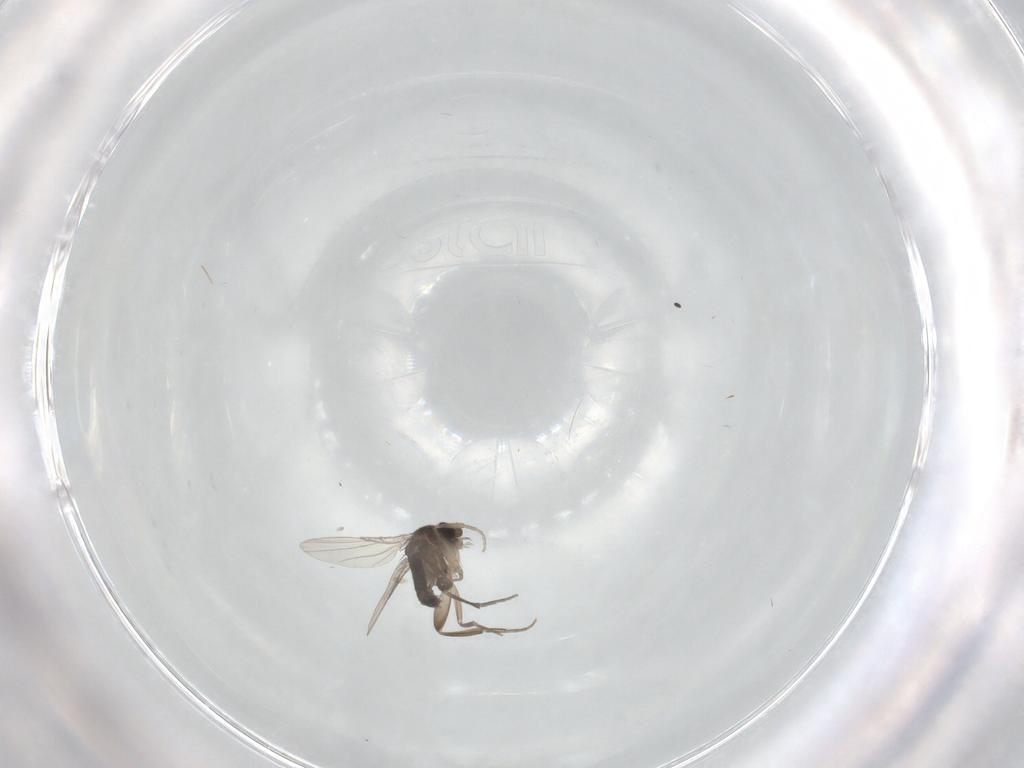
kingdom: Animalia
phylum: Arthropoda
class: Insecta
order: Diptera
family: Phoridae
